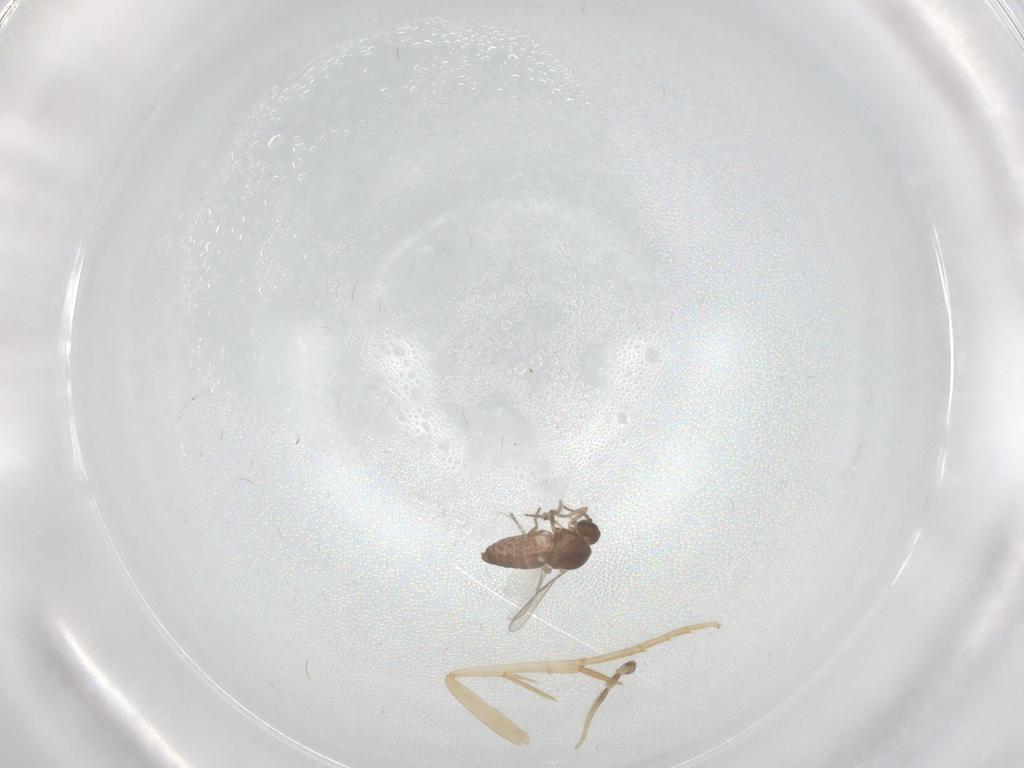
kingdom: Animalia
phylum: Arthropoda
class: Insecta
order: Diptera
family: Ceratopogonidae
